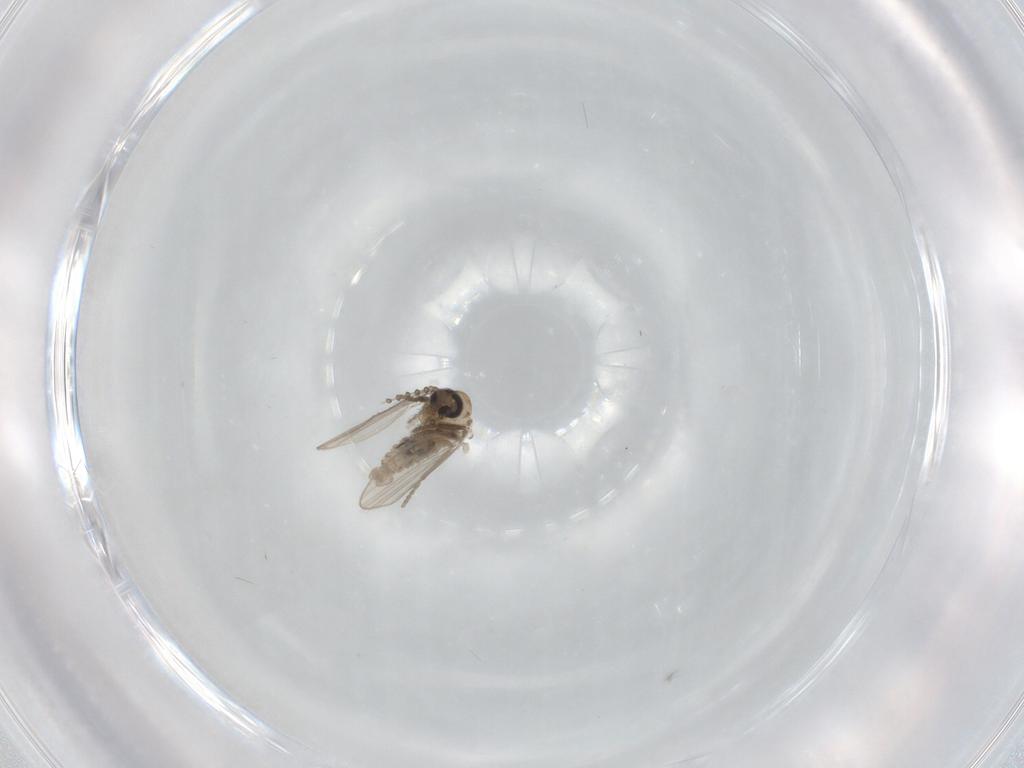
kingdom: Animalia
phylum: Arthropoda
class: Insecta
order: Diptera
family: Psychodidae
